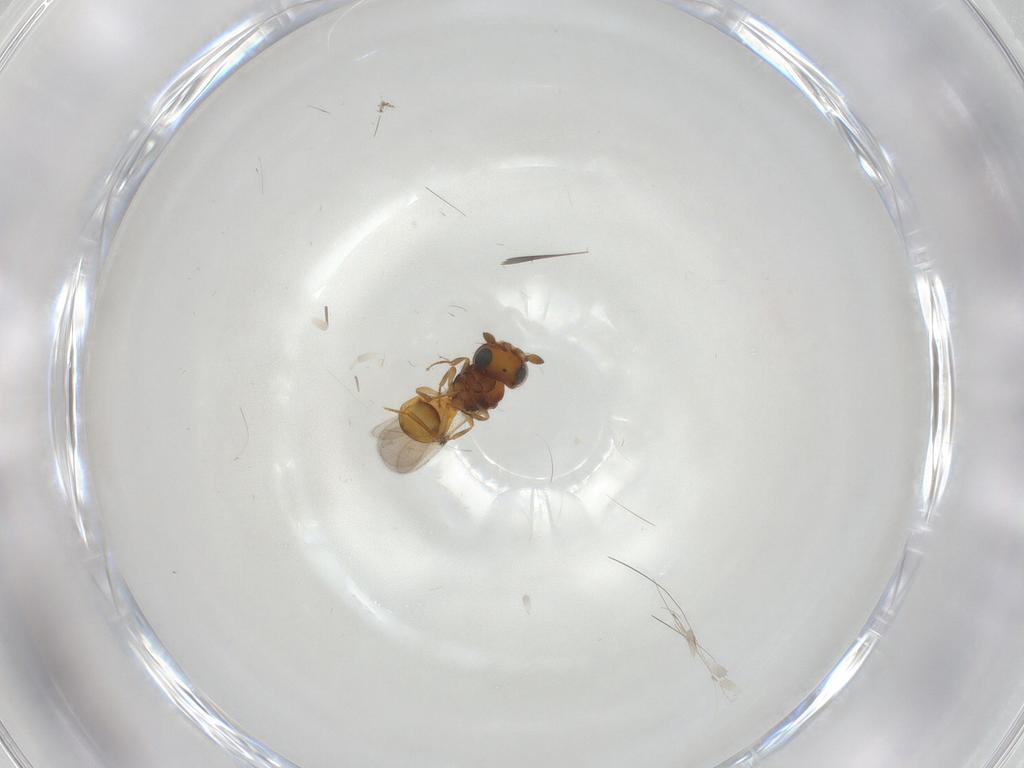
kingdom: Animalia
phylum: Arthropoda
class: Insecta
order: Hymenoptera
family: Scelionidae
